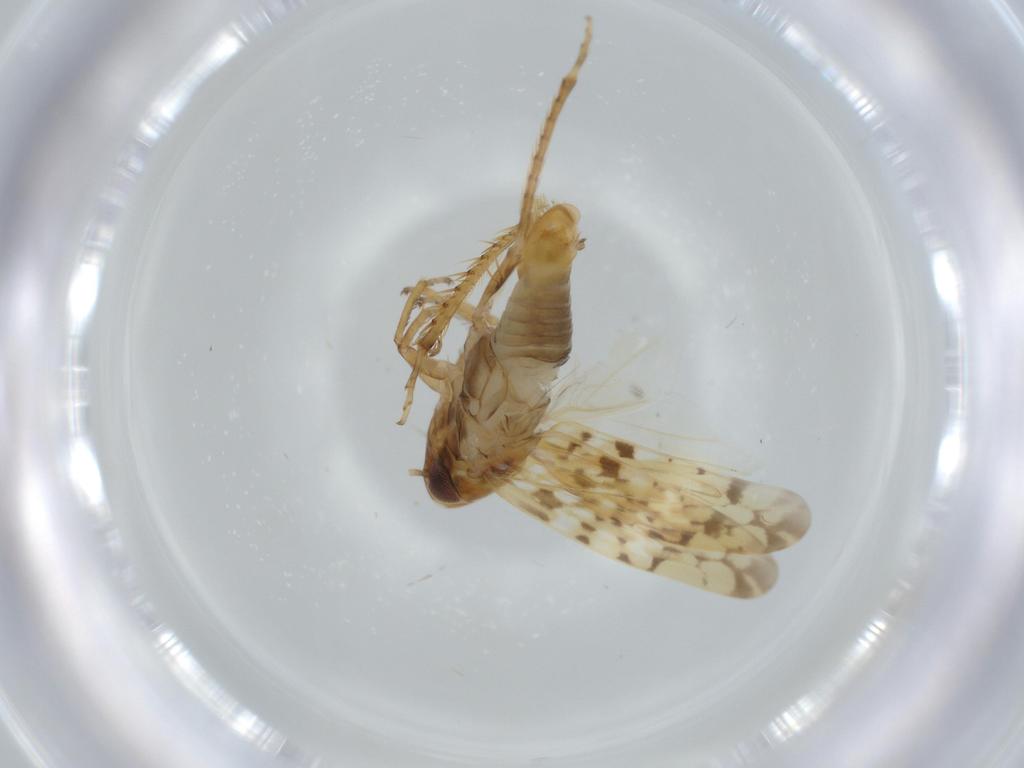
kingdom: Animalia
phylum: Arthropoda
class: Insecta
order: Hemiptera
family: Cicadellidae
